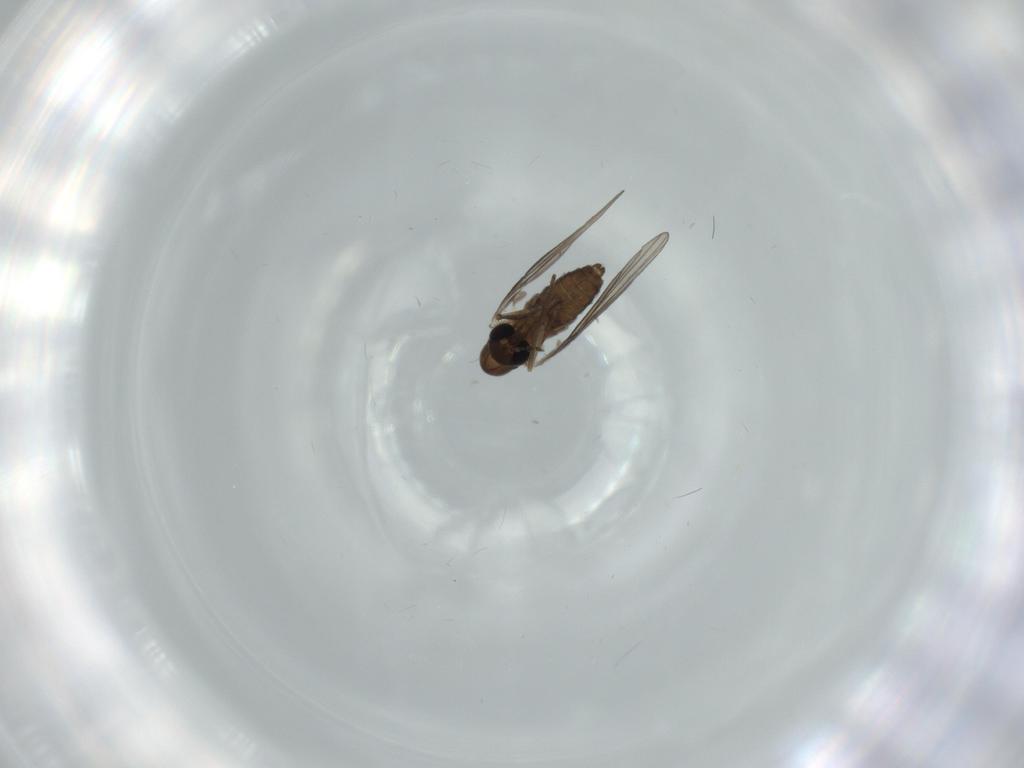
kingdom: Animalia
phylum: Arthropoda
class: Insecta
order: Diptera
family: Psychodidae
